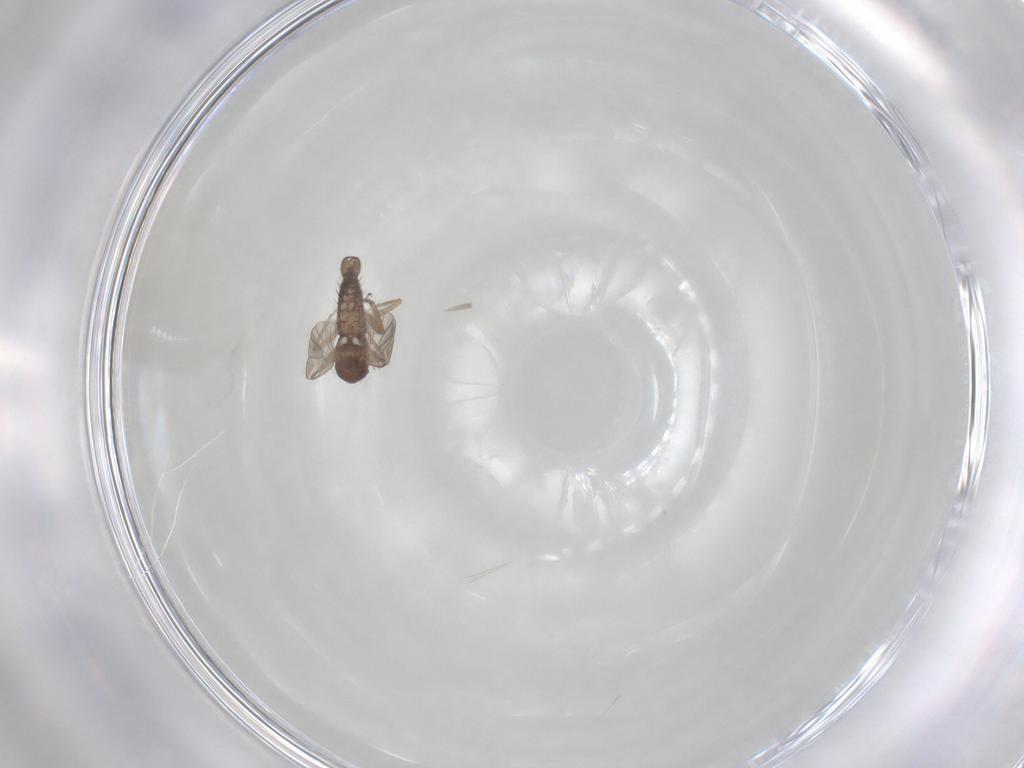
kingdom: Animalia
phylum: Arthropoda
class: Insecta
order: Diptera
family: Ceratopogonidae
